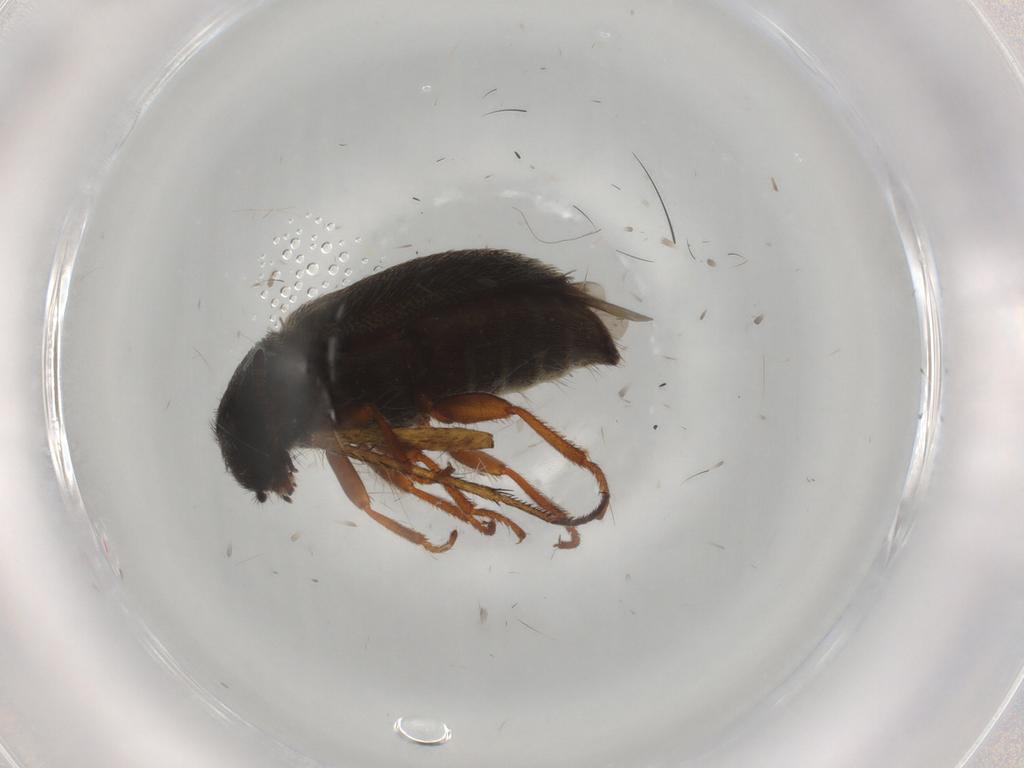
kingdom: Animalia
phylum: Arthropoda
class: Insecta
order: Coleoptera
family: Melyridae
